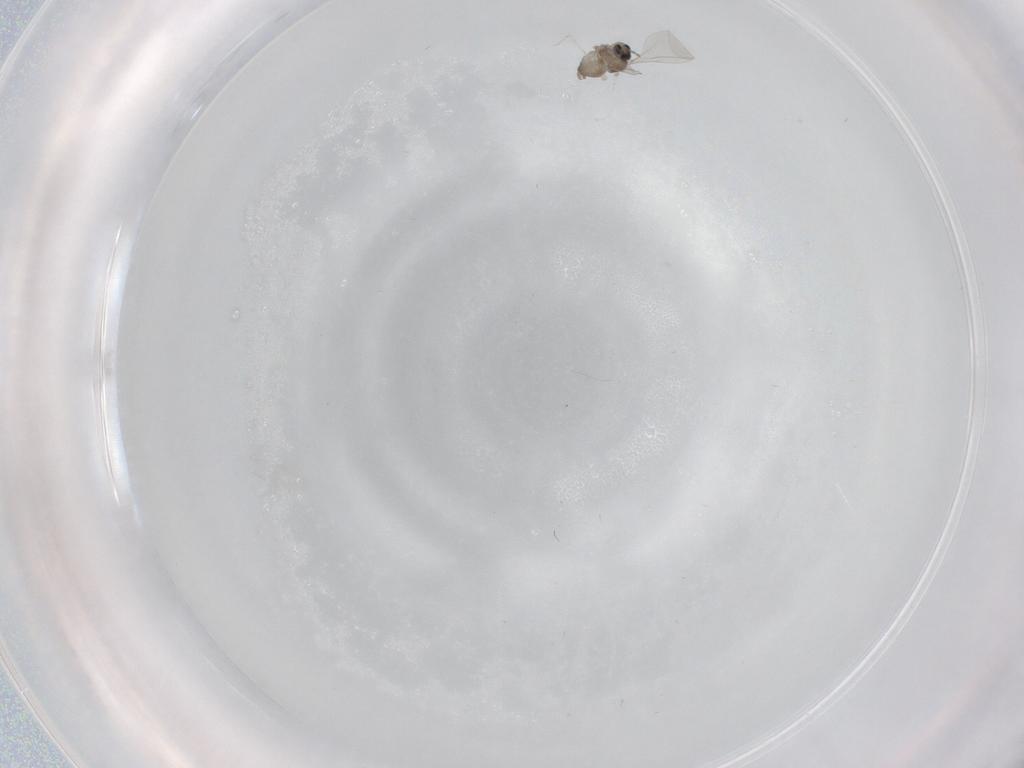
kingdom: Animalia
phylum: Arthropoda
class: Insecta
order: Diptera
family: Cecidomyiidae
